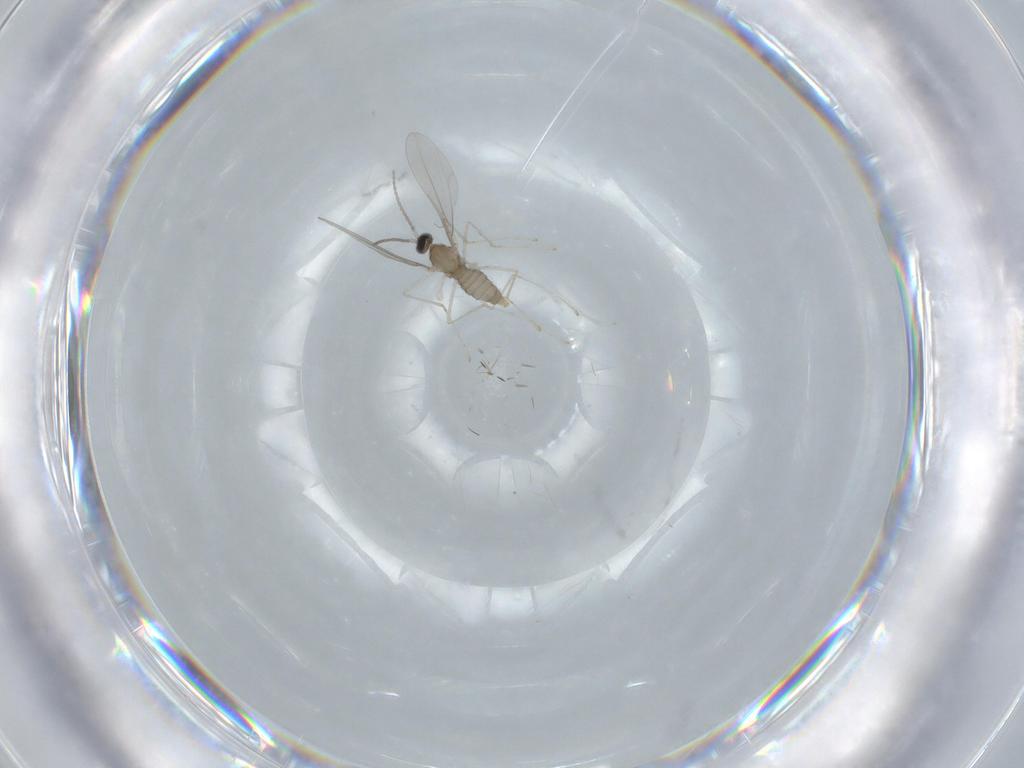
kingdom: Animalia
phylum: Arthropoda
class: Insecta
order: Diptera
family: Cecidomyiidae
